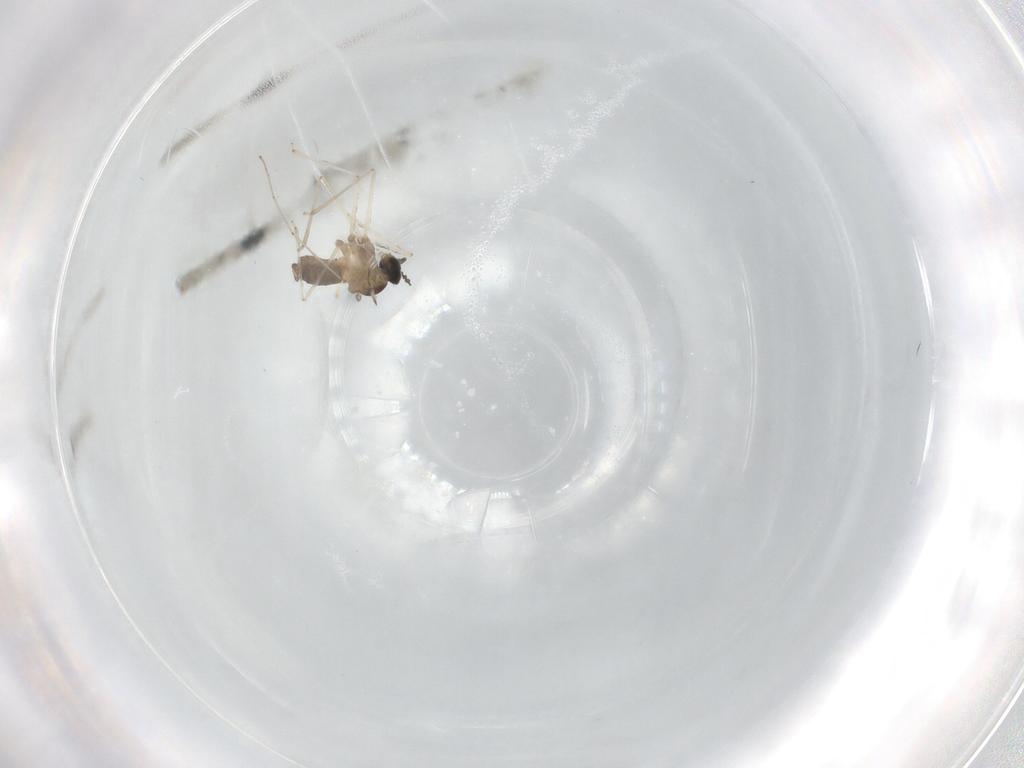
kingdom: Animalia
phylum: Arthropoda
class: Insecta
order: Diptera
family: Cecidomyiidae
